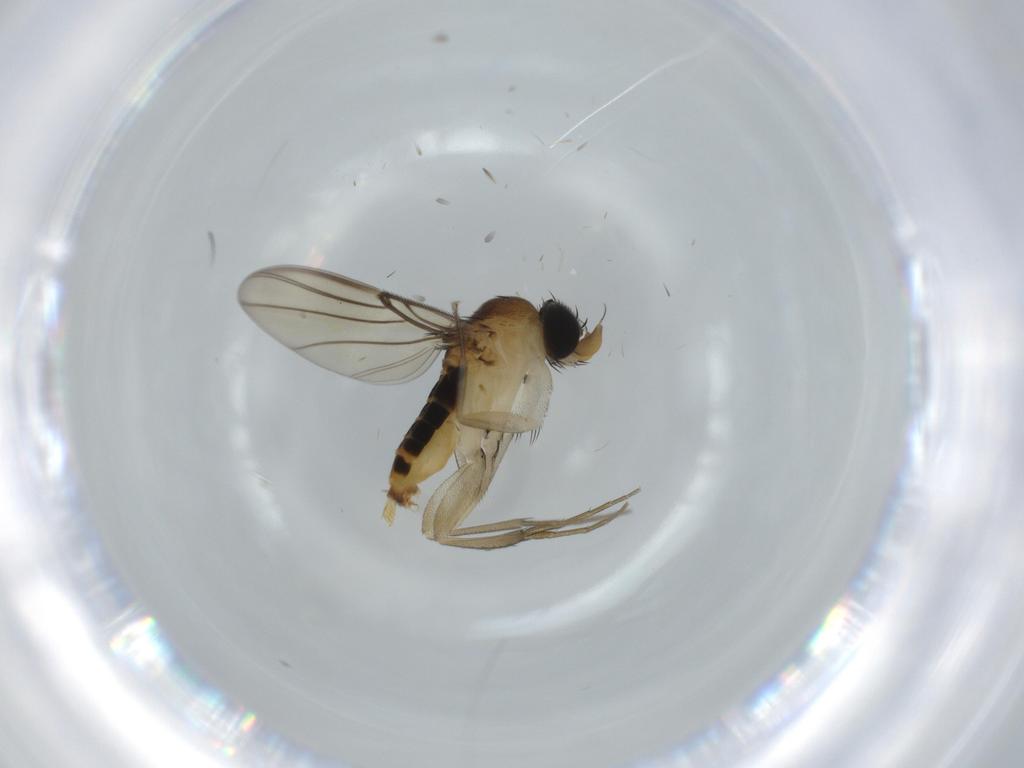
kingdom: Animalia
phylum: Arthropoda
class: Insecta
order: Diptera
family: Phoridae
